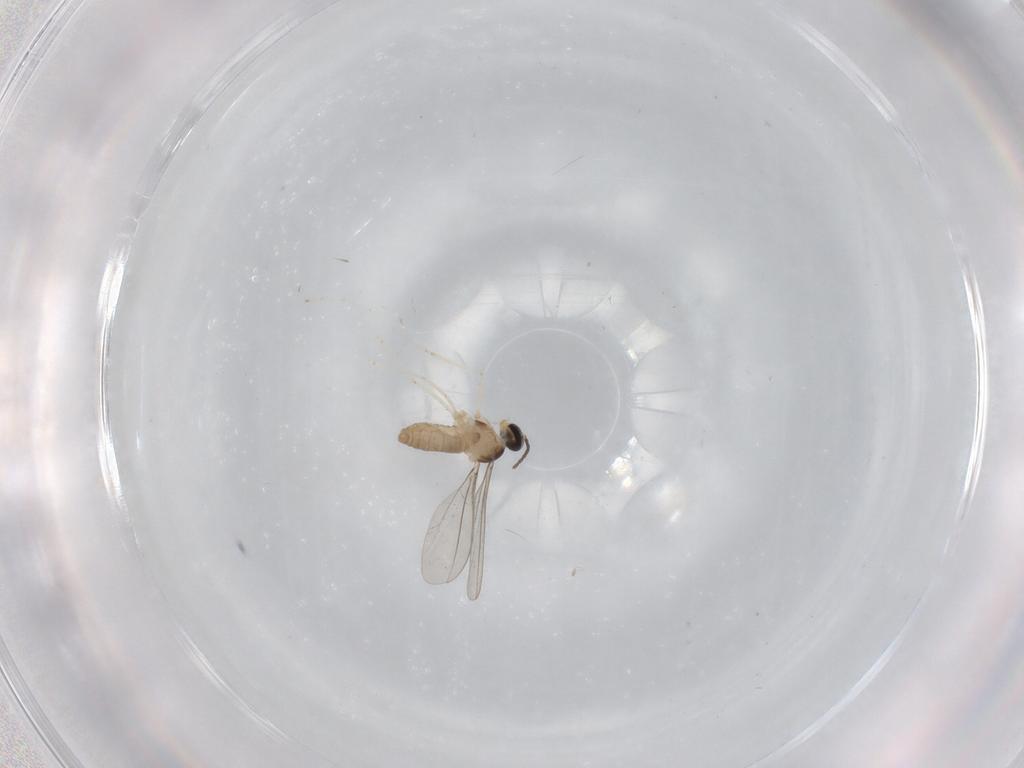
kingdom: Animalia
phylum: Arthropoda
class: Insecta
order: Diptera
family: Cecidomyiidae
